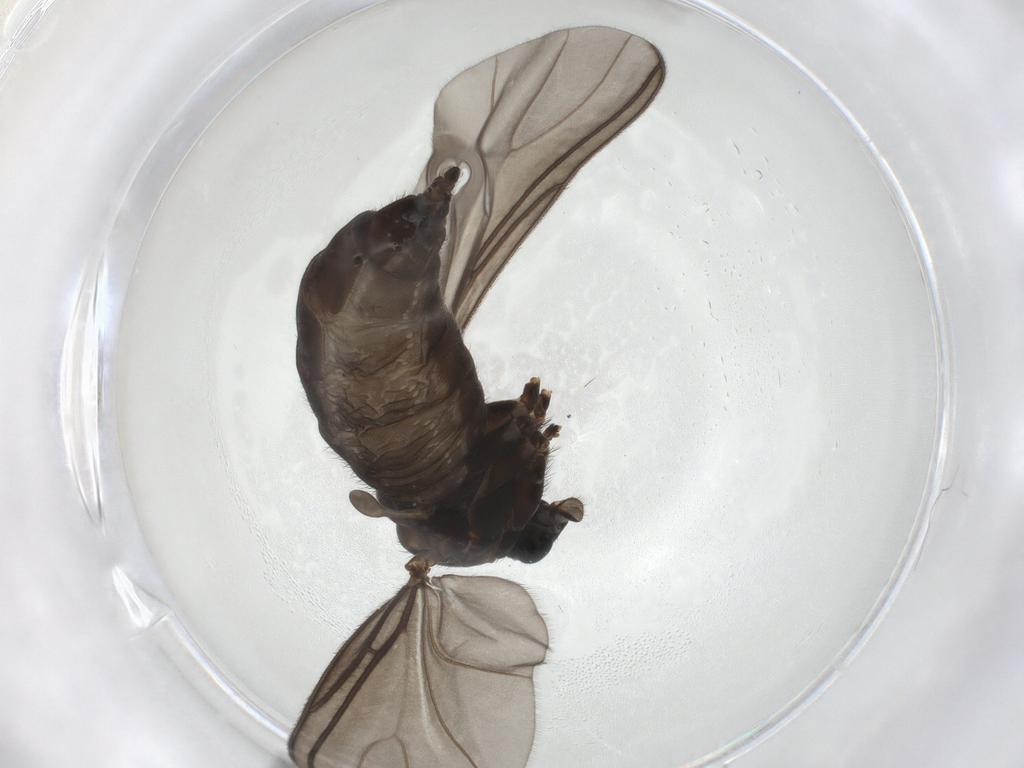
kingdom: Animalia
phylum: Arthropoda
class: Insecta
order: Diptera
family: Sciaridae
